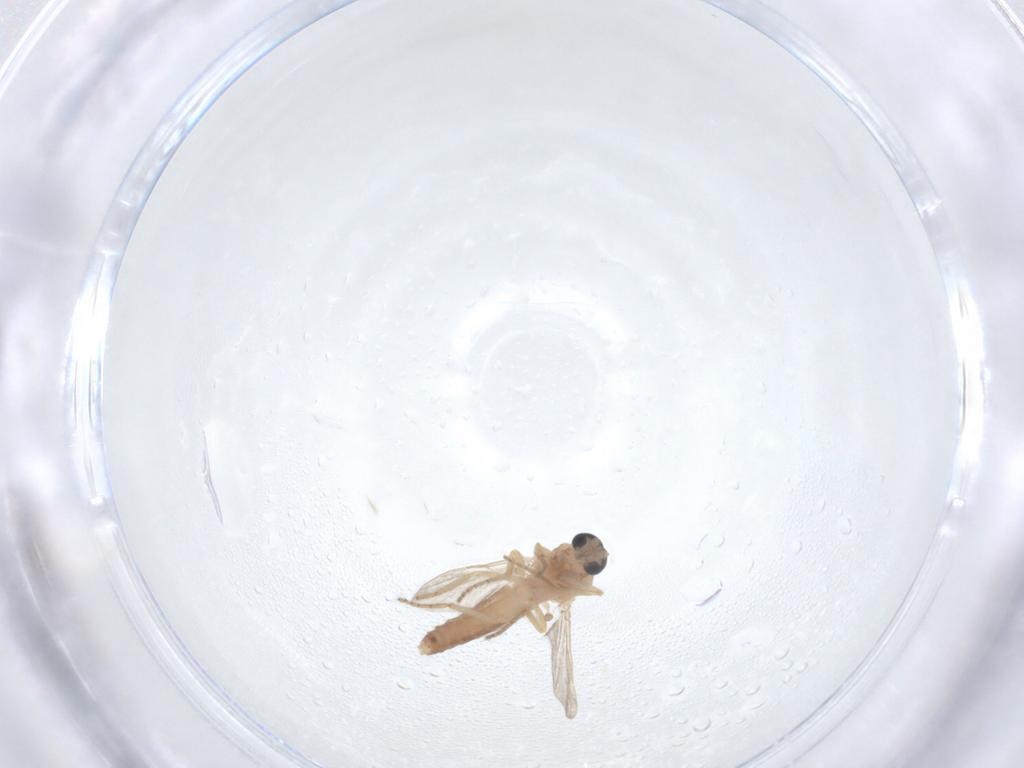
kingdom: Animalia
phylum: Arthropoda
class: Insecta
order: Diptera
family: Ceratopogonidae
